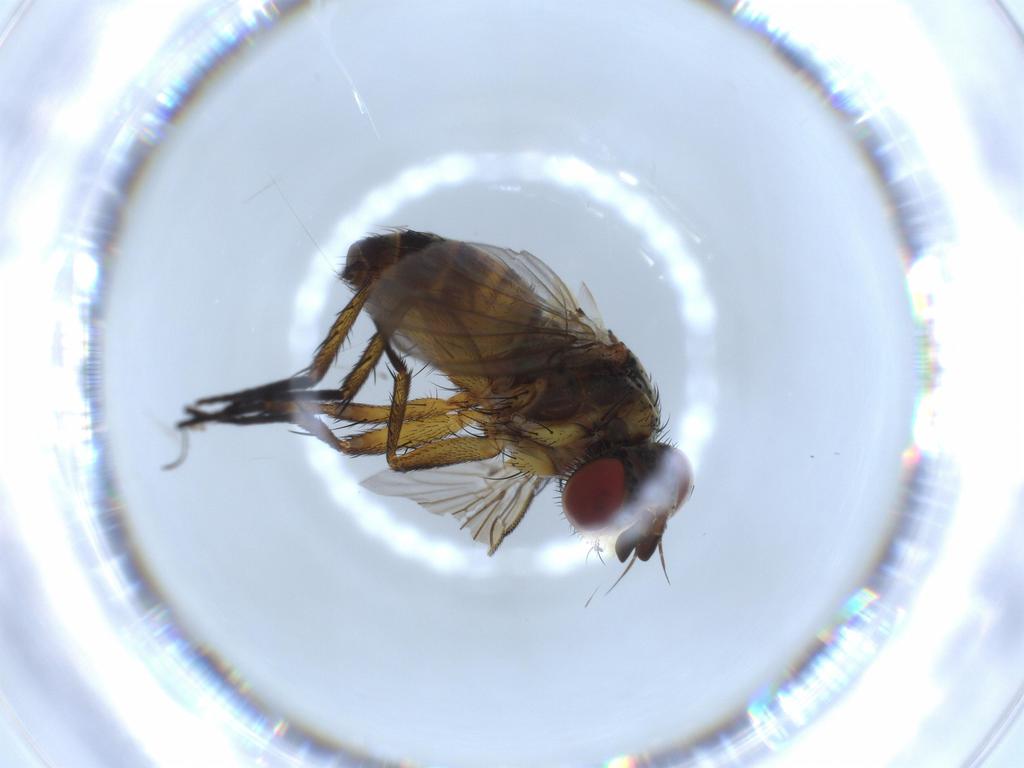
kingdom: Animalia
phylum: Arthropoda
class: Insecta
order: Diptera
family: Tachinidae
